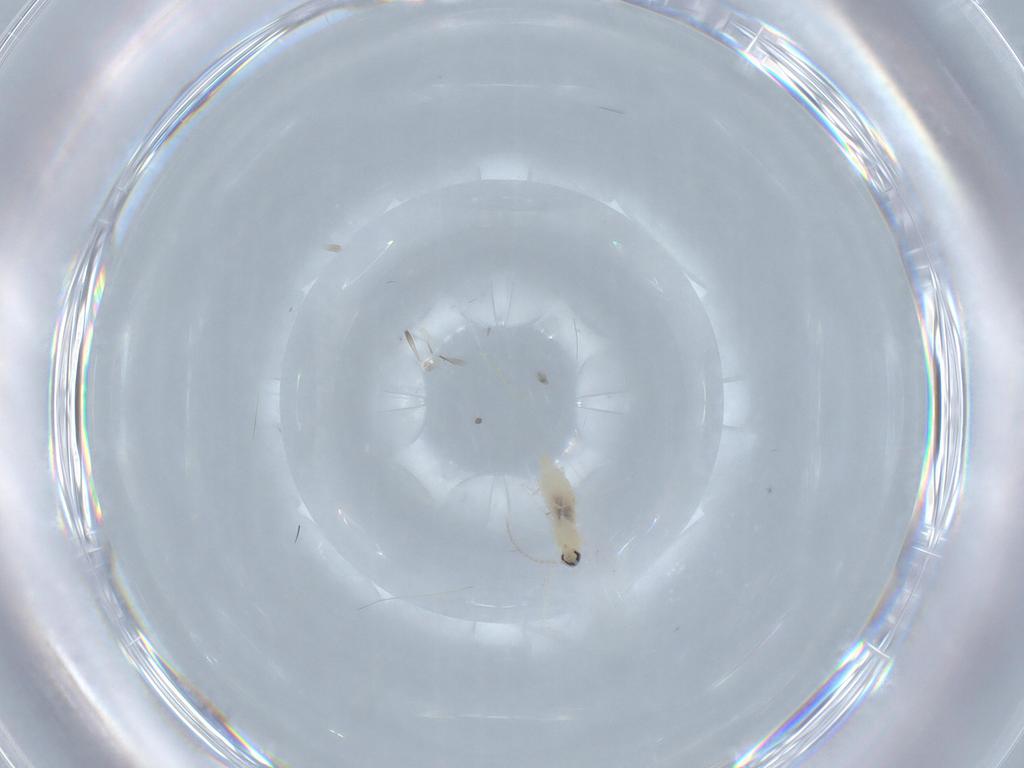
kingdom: Animalia
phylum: Arthropoda
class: Insecta
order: Diptera
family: Cecidomyiidae
